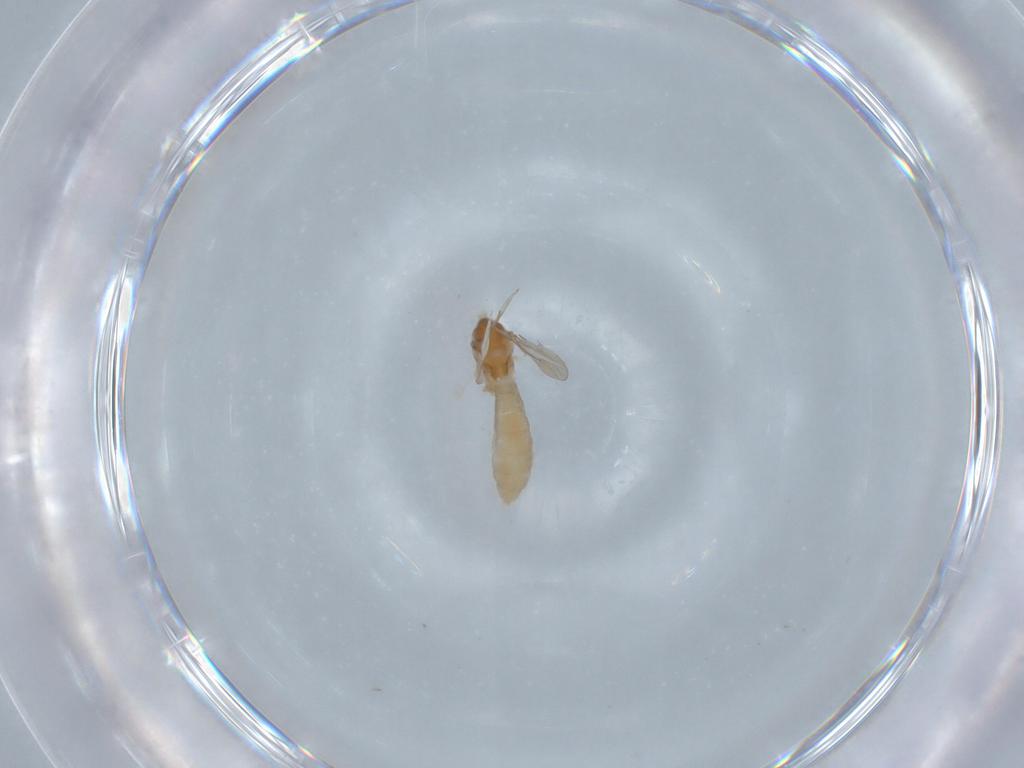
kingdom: Animalia
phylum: Arthropoda
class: Insecta
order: Diptera
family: Cecidomyiidae
